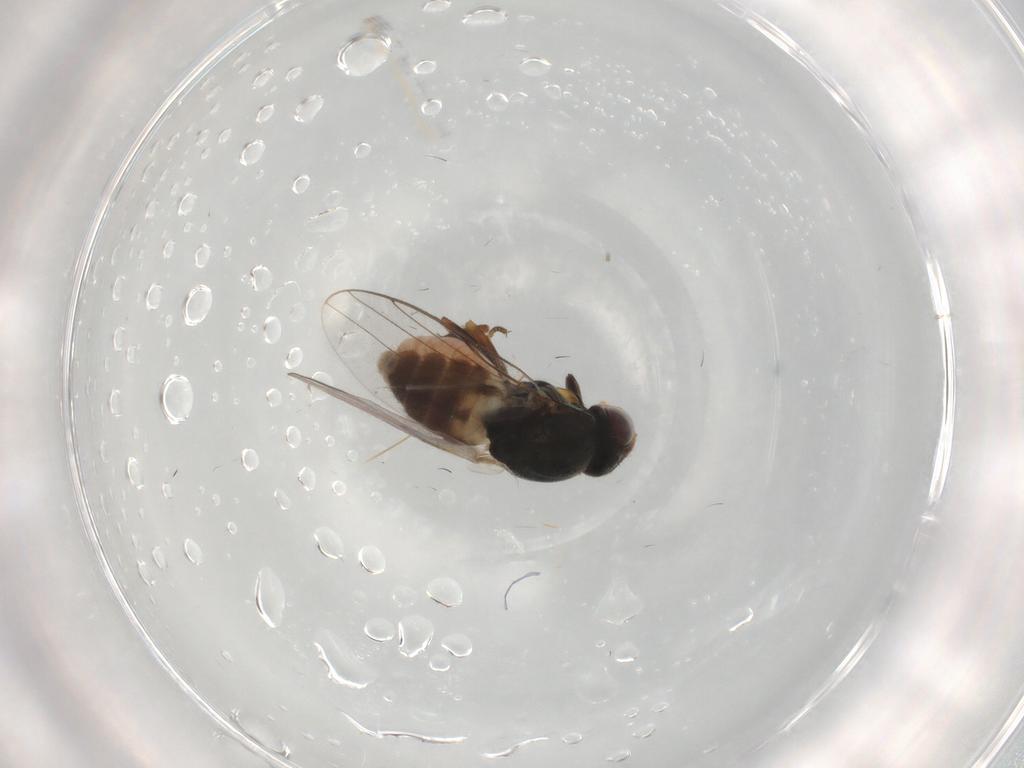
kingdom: Animalia
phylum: Arthropoda
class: Insecta
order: Diptera
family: Chloropidae
